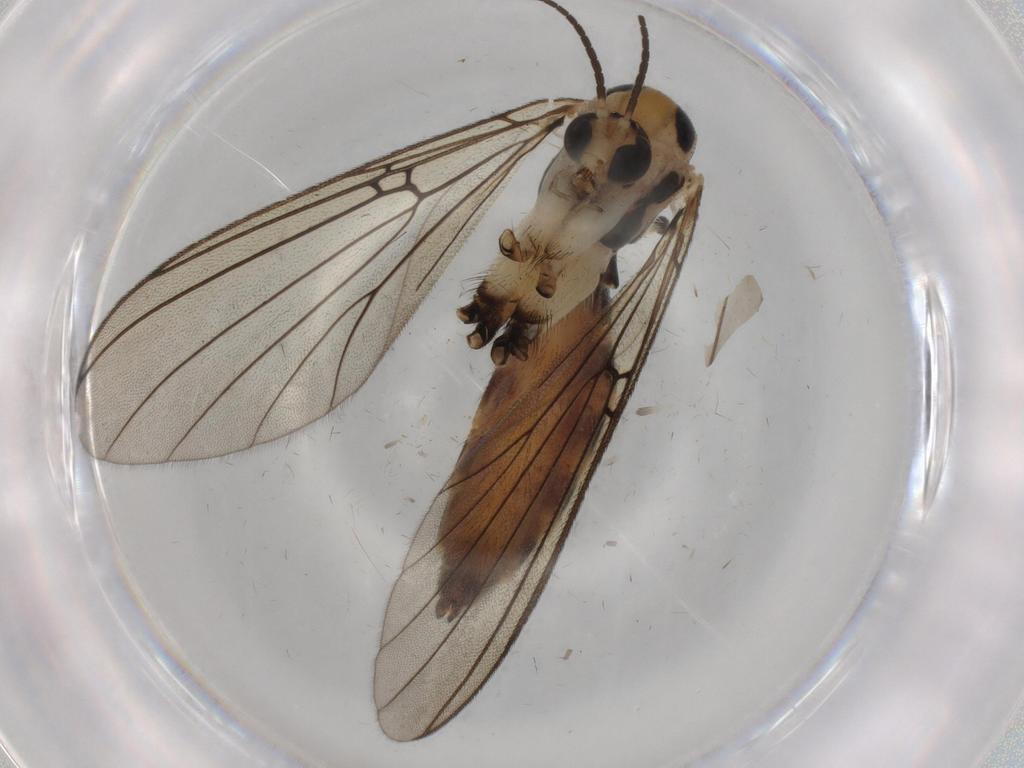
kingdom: Animalia
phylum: Arthropoda
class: Insecta
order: Diptera
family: Mycetophilidae
